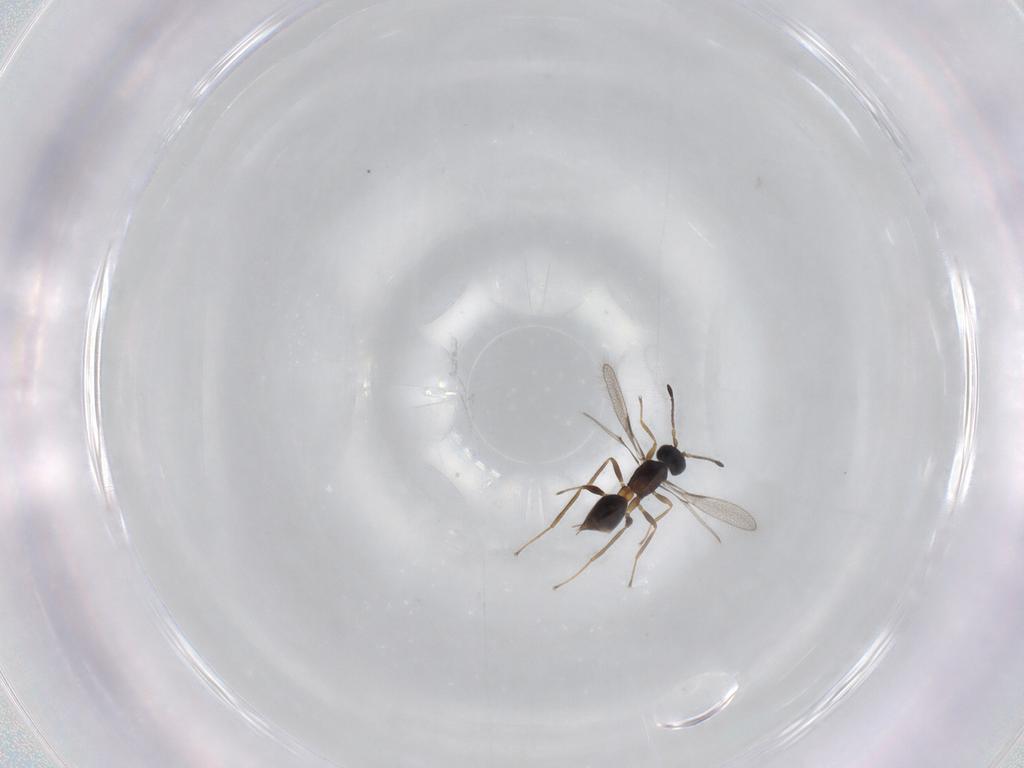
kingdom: Animalia
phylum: Arthropoda
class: Insecta
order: Hymenoptera
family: Mymaridae
